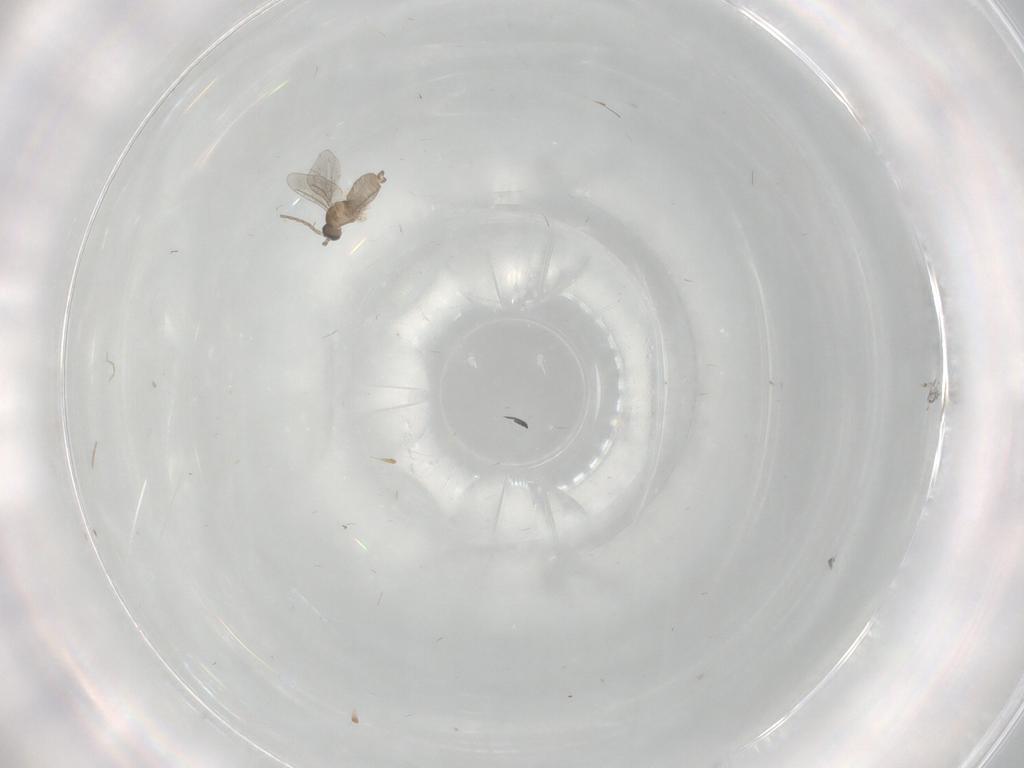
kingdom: Animalia
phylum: Arthropoda
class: Insecta
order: Diptera
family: Cecidomyiidae
